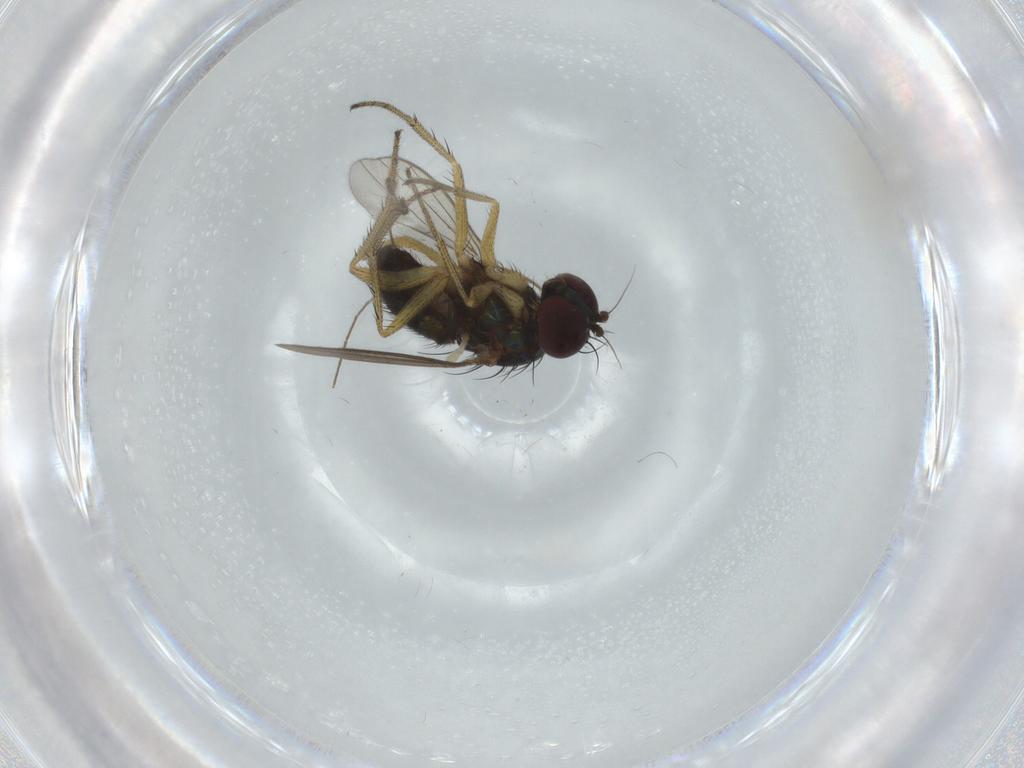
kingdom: Animalia
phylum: Arthropoda
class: Insecta
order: Diptera
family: Dolichopodidae
